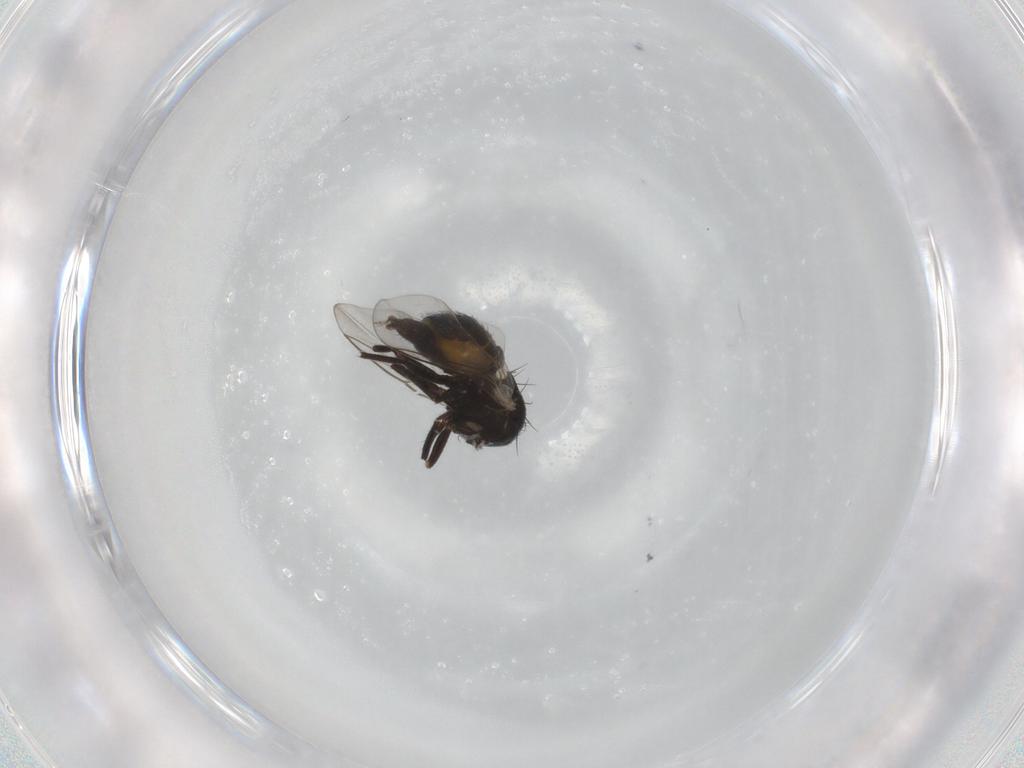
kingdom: Animalia
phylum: Arthropoda
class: Insecta
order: Diptera
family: Agromyzidae
